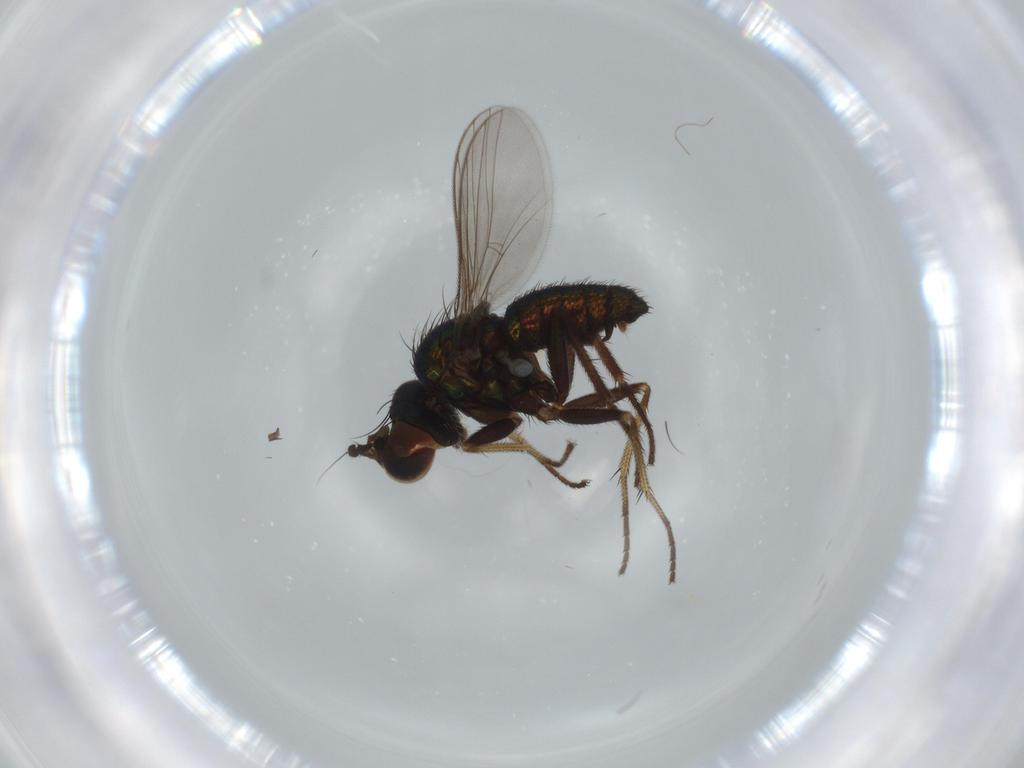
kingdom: Animalia
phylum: Arthropoda
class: Insecta
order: Diptera
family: Dolichopodidae
